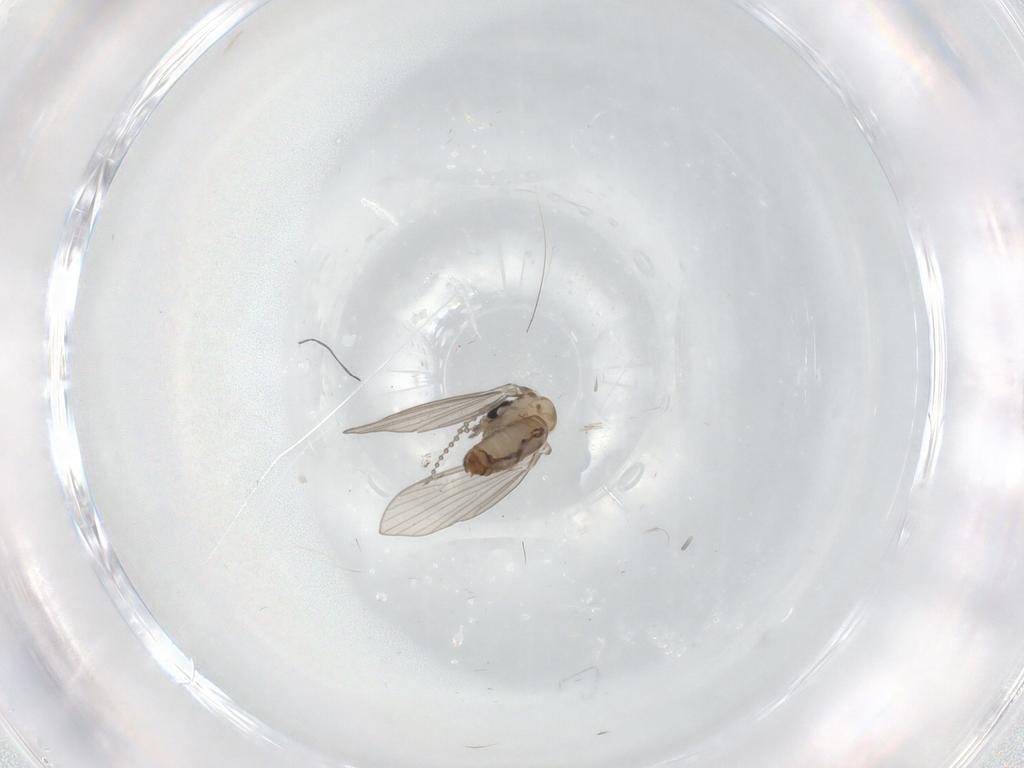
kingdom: Animalia
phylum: Arthropoda
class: Insecta
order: Diptera
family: Psychodidae
